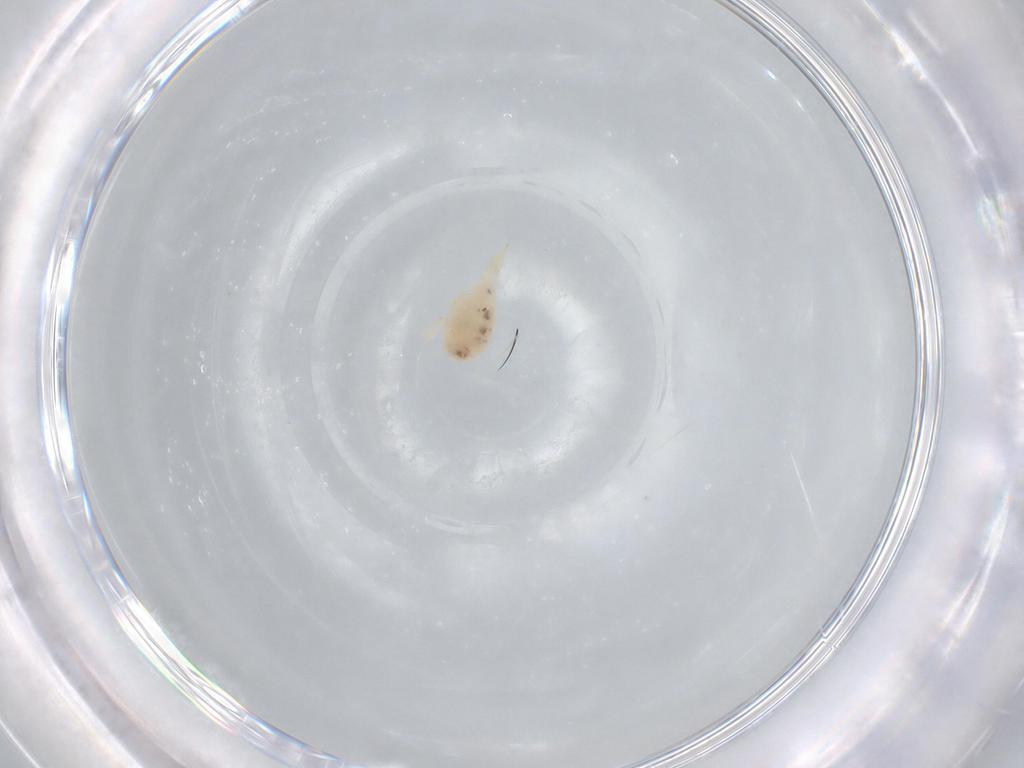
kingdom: Animalia
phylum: Arthropoda
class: Arachnida
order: Trombidiformes
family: Bdellidae
